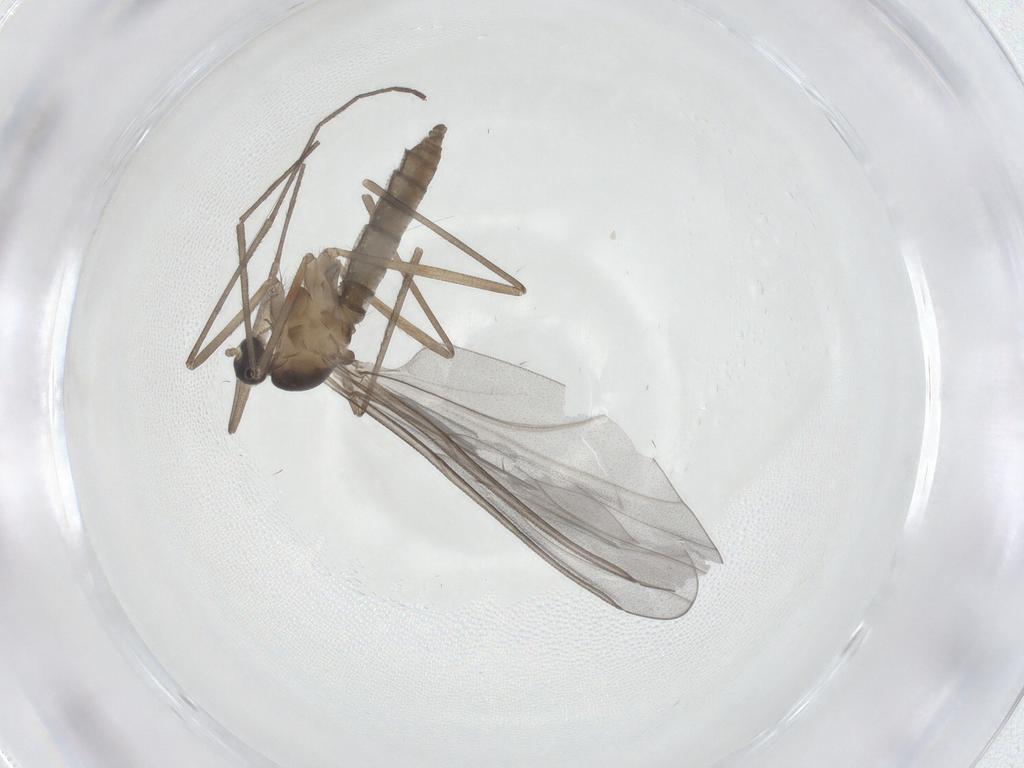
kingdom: Animalia
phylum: Arthropoda
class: Insecta
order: Diptera
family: Cecidomyiidae
